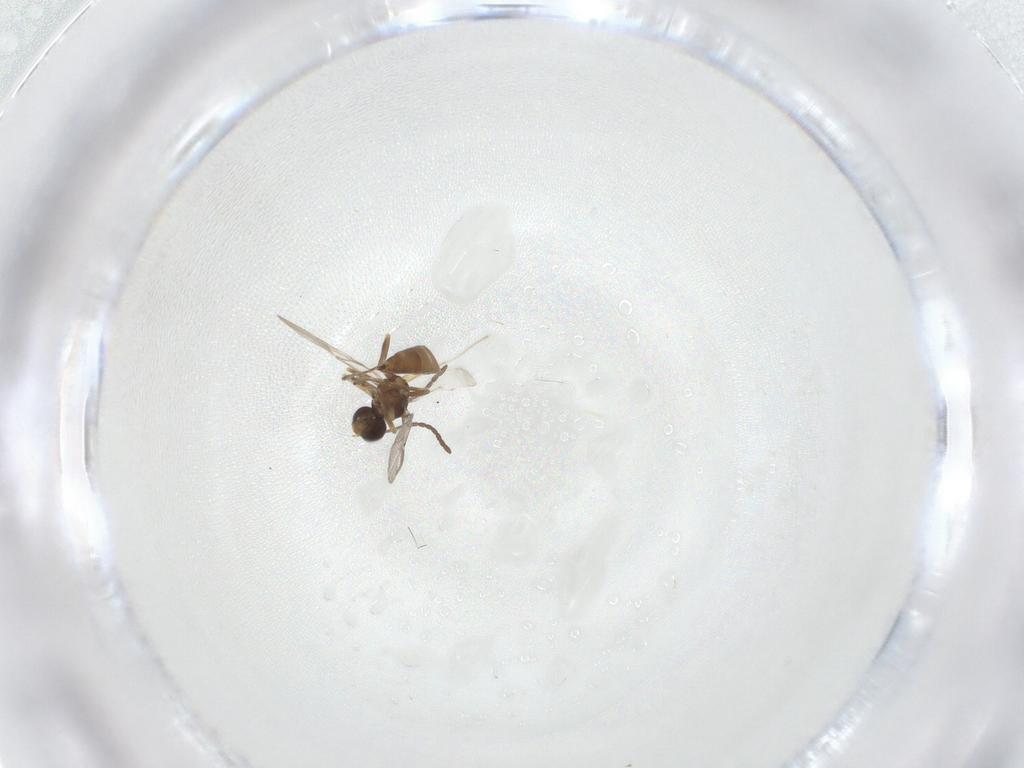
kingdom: Animalia
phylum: Arthropoda
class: Insecta
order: Hymenoptera
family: Braconidae
